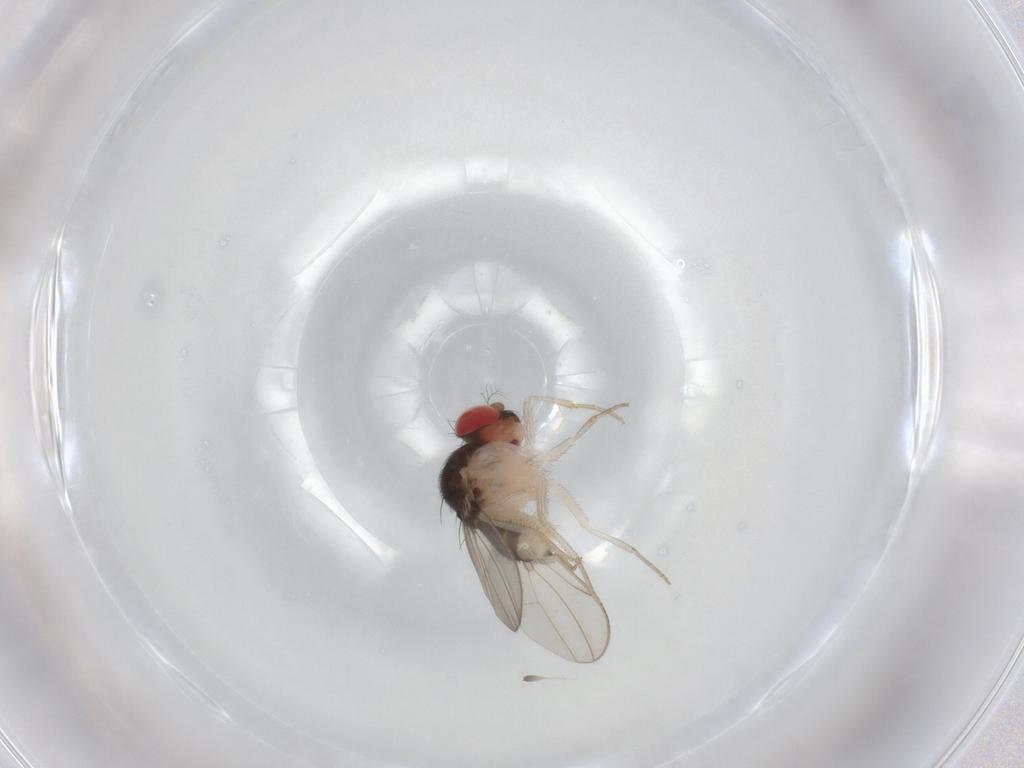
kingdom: Animalia
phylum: Arthropoda
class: Insecta
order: Diptera
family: Drosophilidae
